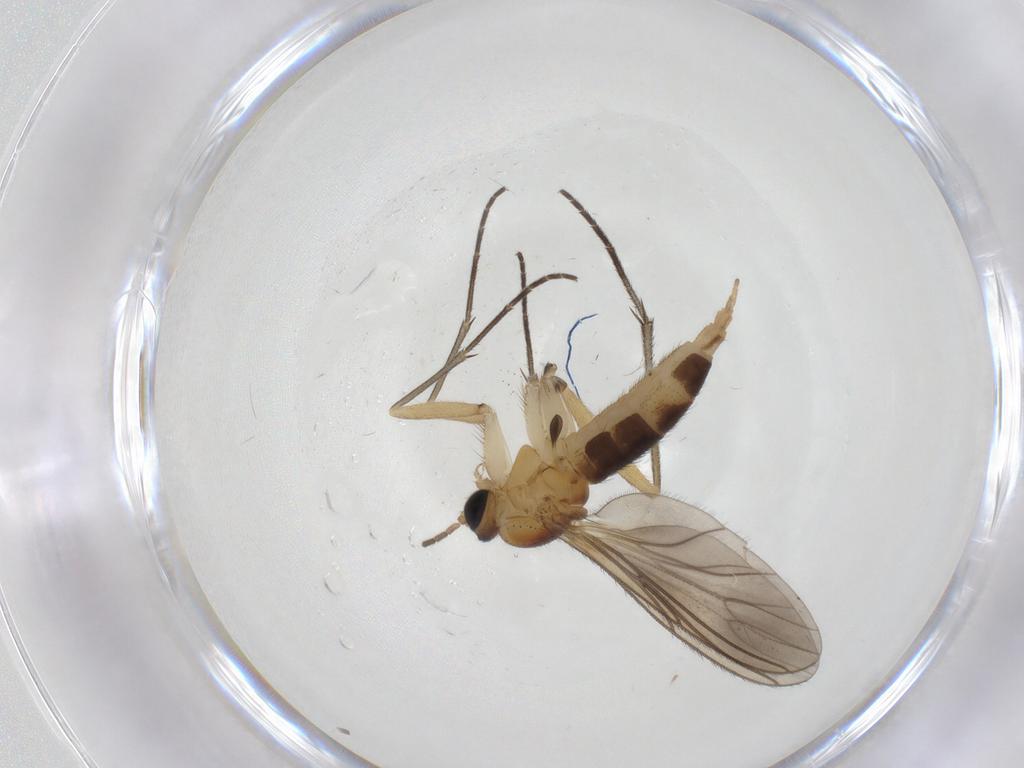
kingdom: Animalia
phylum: Arthropoda
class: Insecta
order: Diptera
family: Sciaridae
